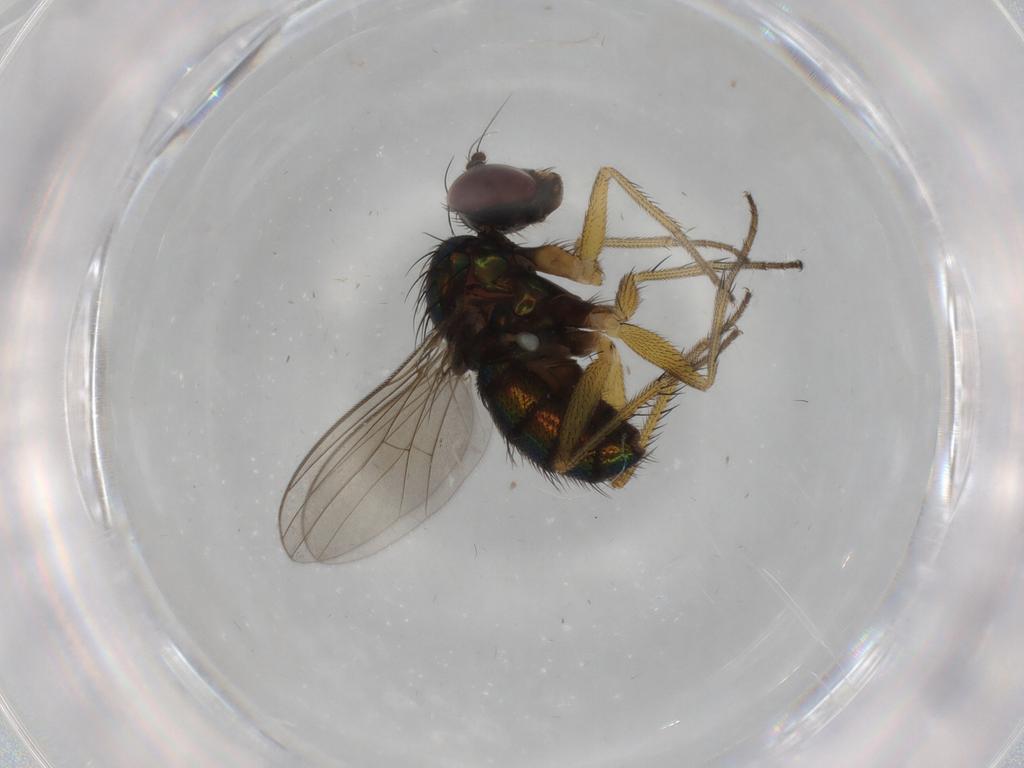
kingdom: Animalia
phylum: Arthropoda
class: Insecta
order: Diptera
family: Dolichopodidae
